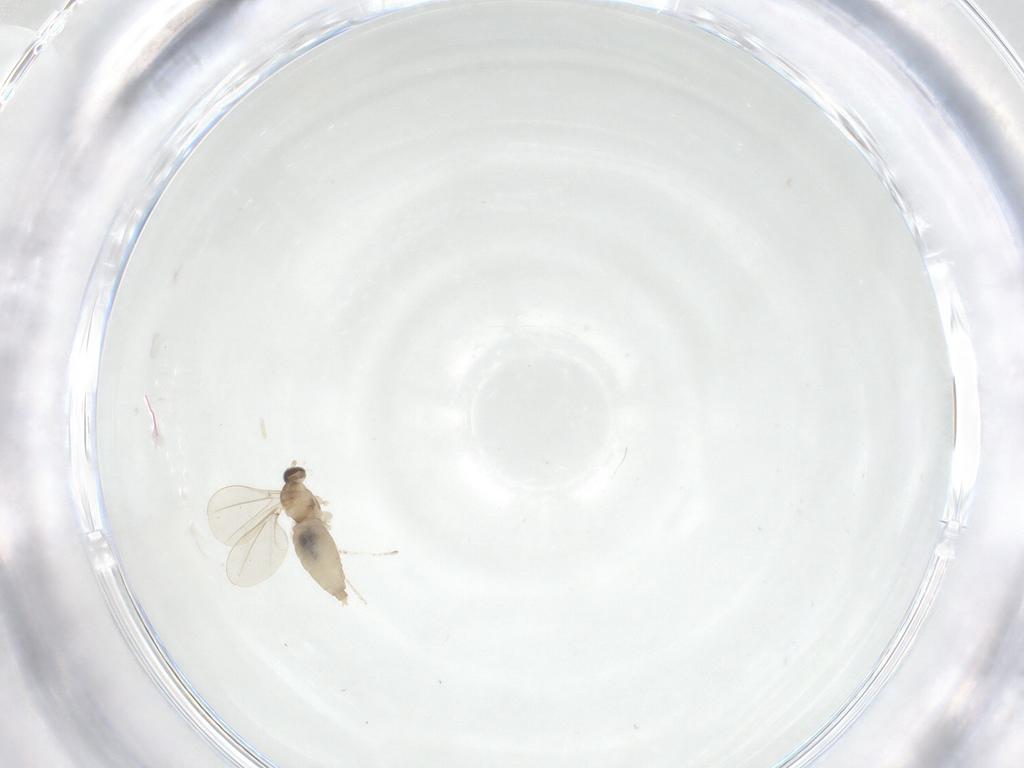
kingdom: Animalia
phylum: Arthropoda
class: Insecta
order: Diptera
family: Cecidomyiidae
